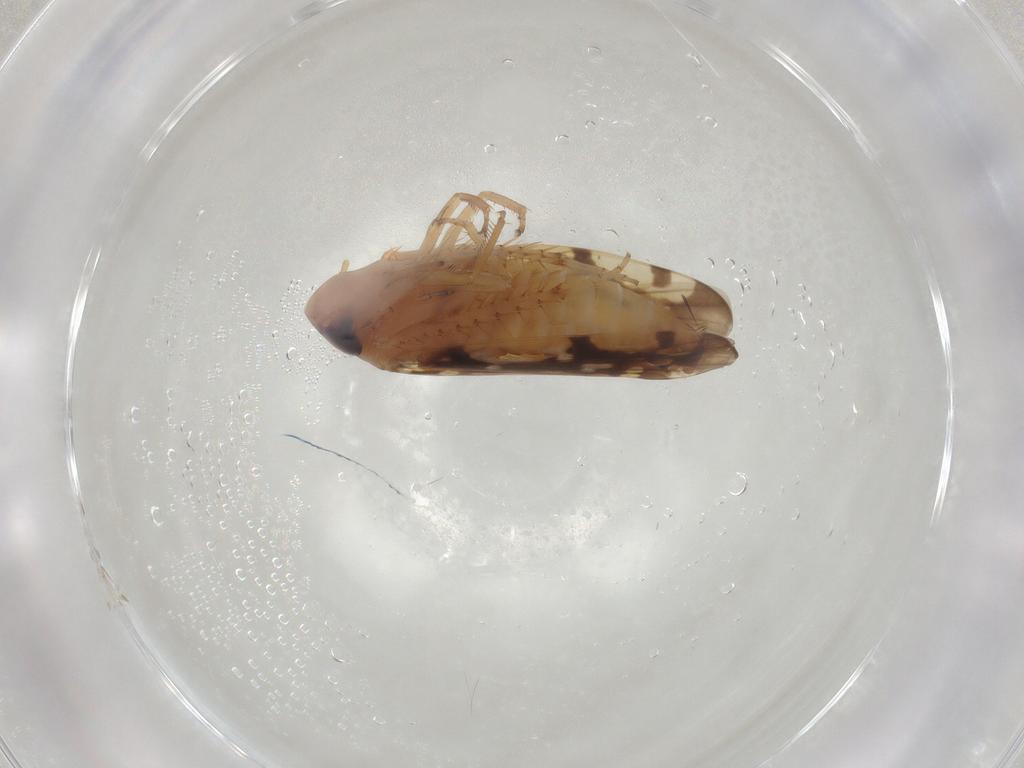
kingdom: Animalia
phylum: Arthropoda
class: Insecta
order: Hemiptera
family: Cicadellidae
